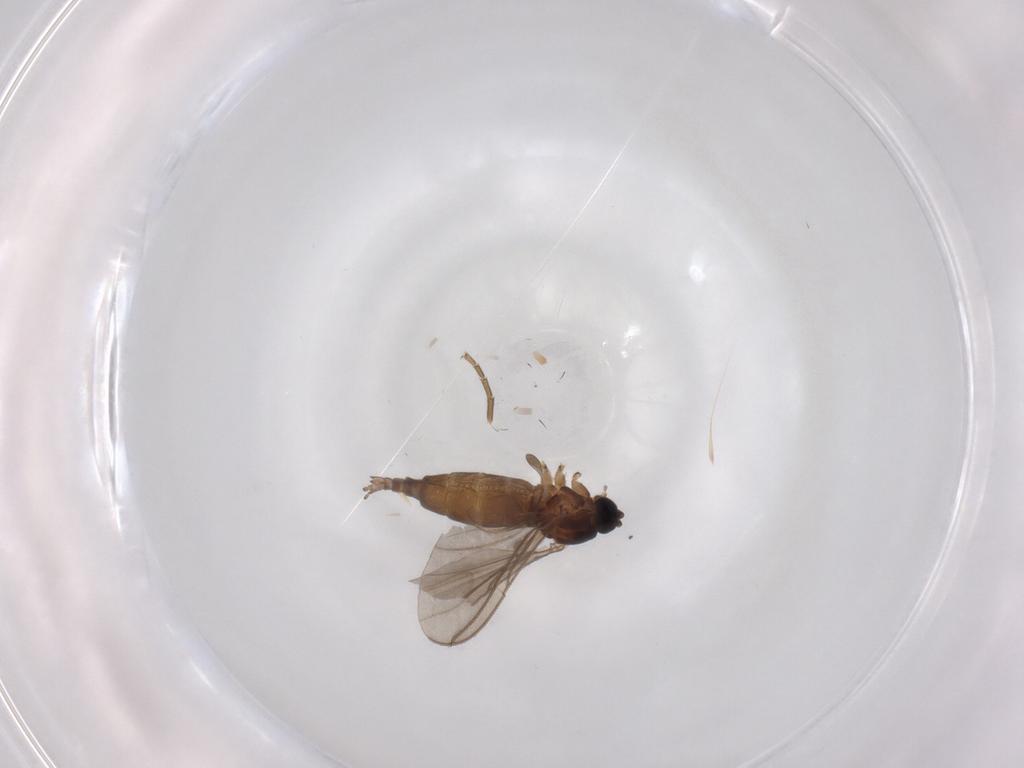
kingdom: Animalia
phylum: Arthropoda
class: Insecta
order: Diptera
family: Sciaridae
